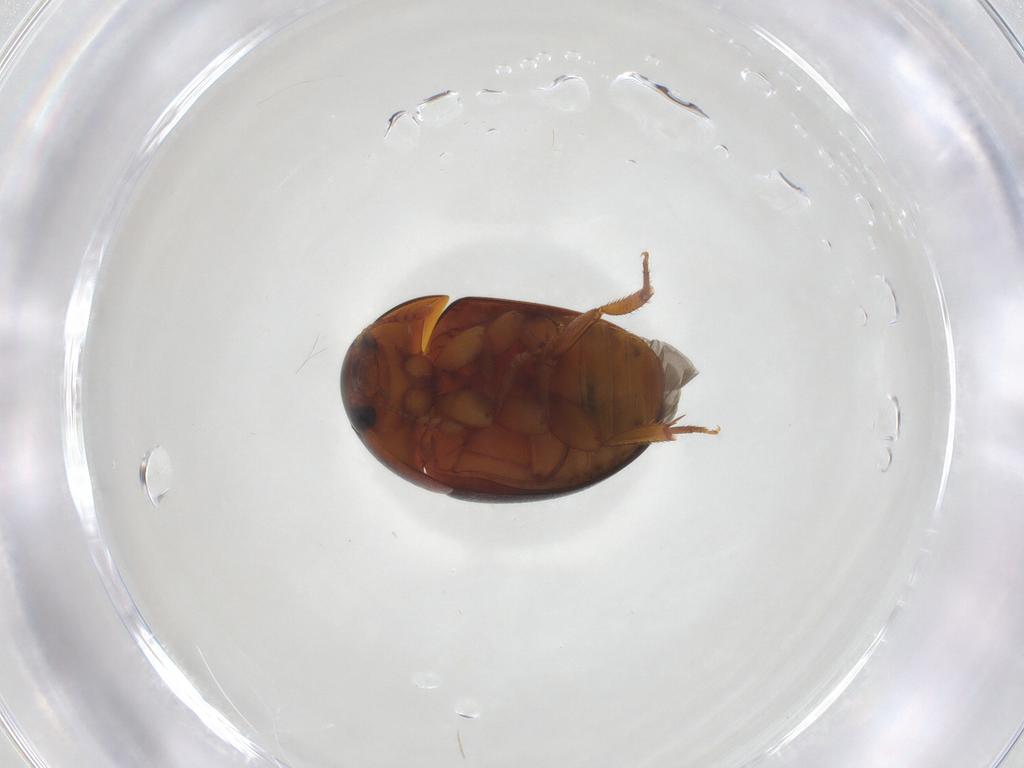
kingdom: Animalia
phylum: Arthropoda
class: Insecta
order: Coleoptera
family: Phalacridae
